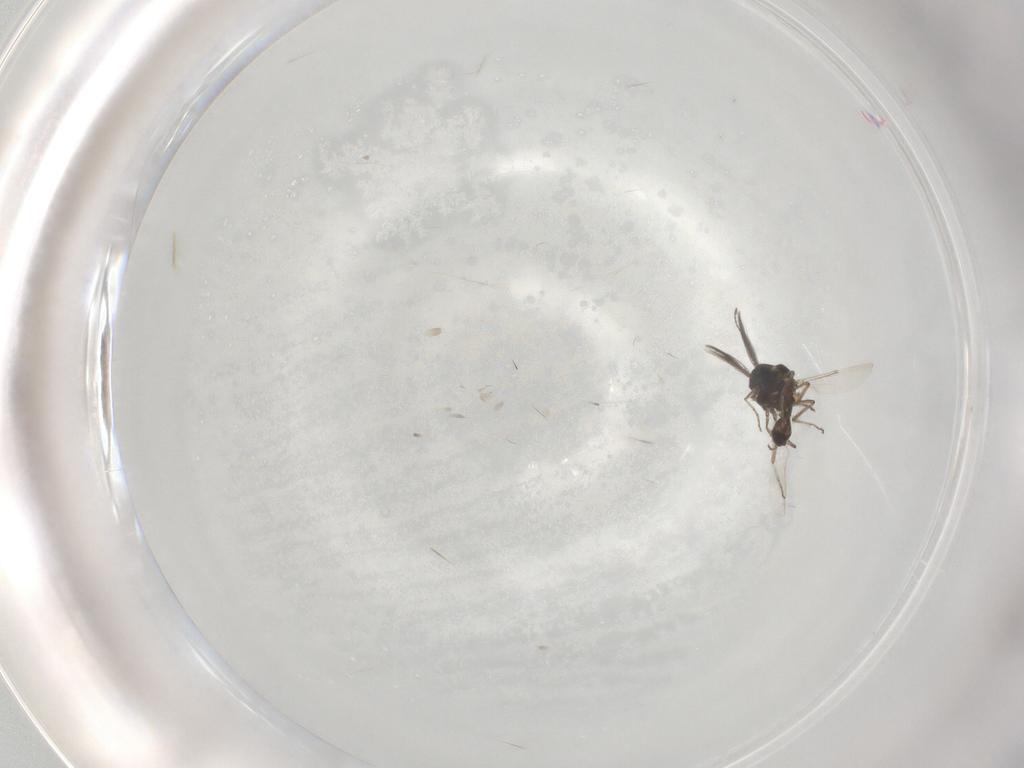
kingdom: Animalia
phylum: Arthropoda
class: Insecta
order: Diptera
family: Ceratopogonidae
